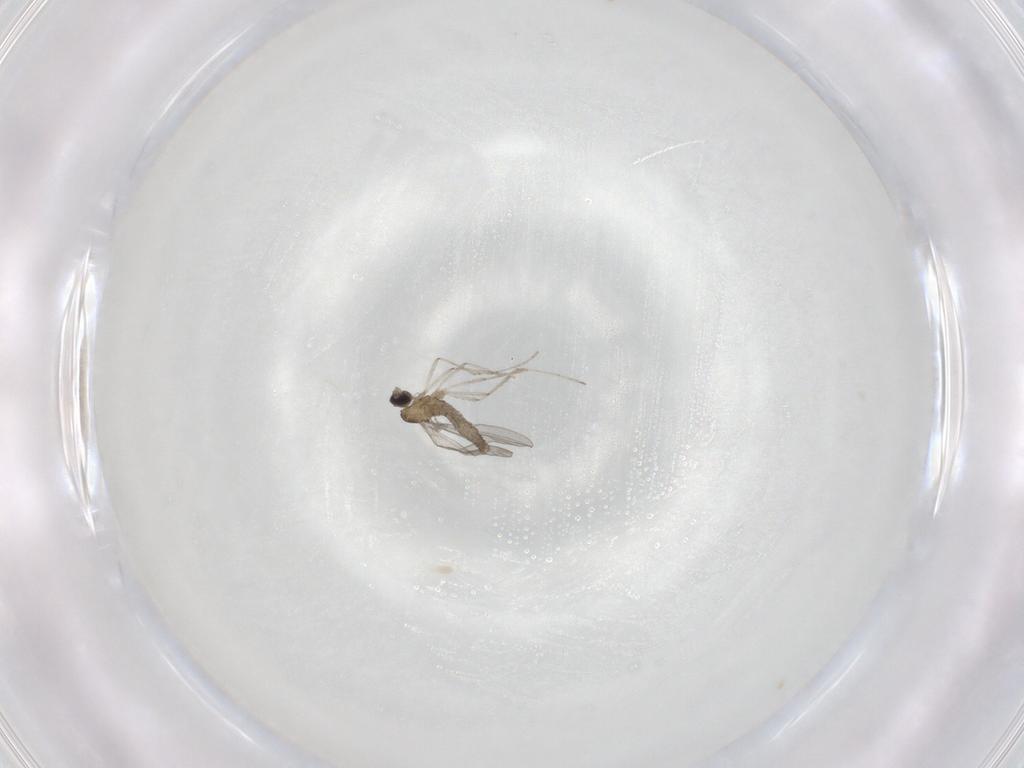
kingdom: Animalia
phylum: Arthropoda
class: Insecta
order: Diptera
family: Cecidomyiidae
